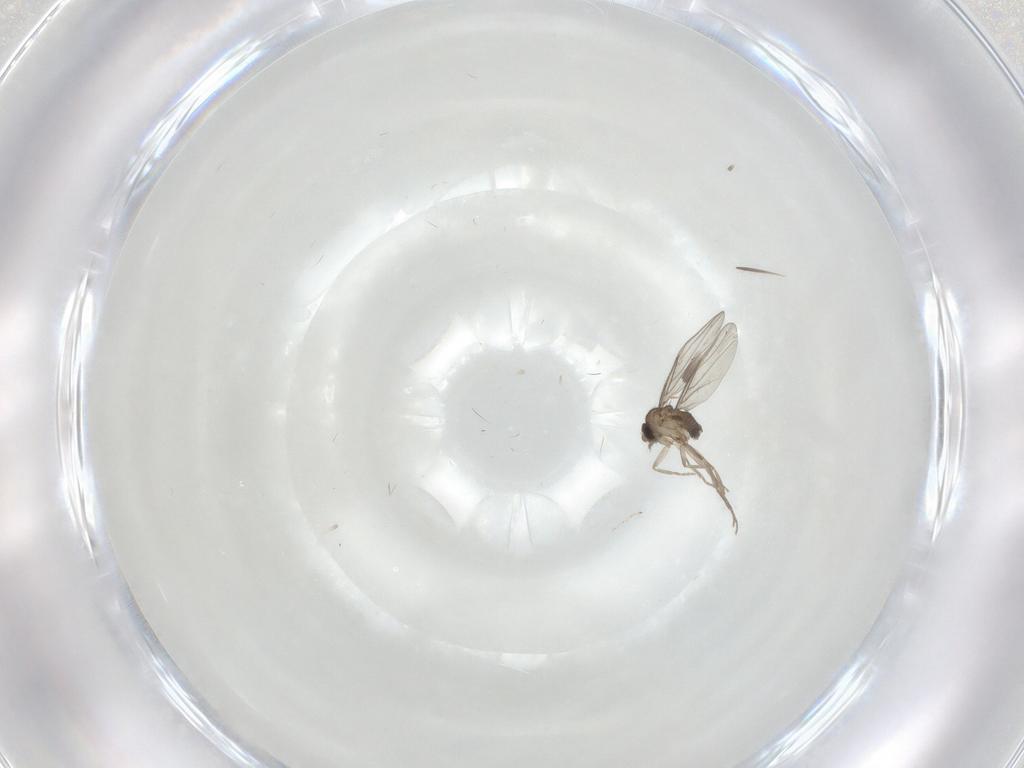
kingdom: Animalia
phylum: Arthropoda
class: Insecta
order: Diptera
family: Phoridae
